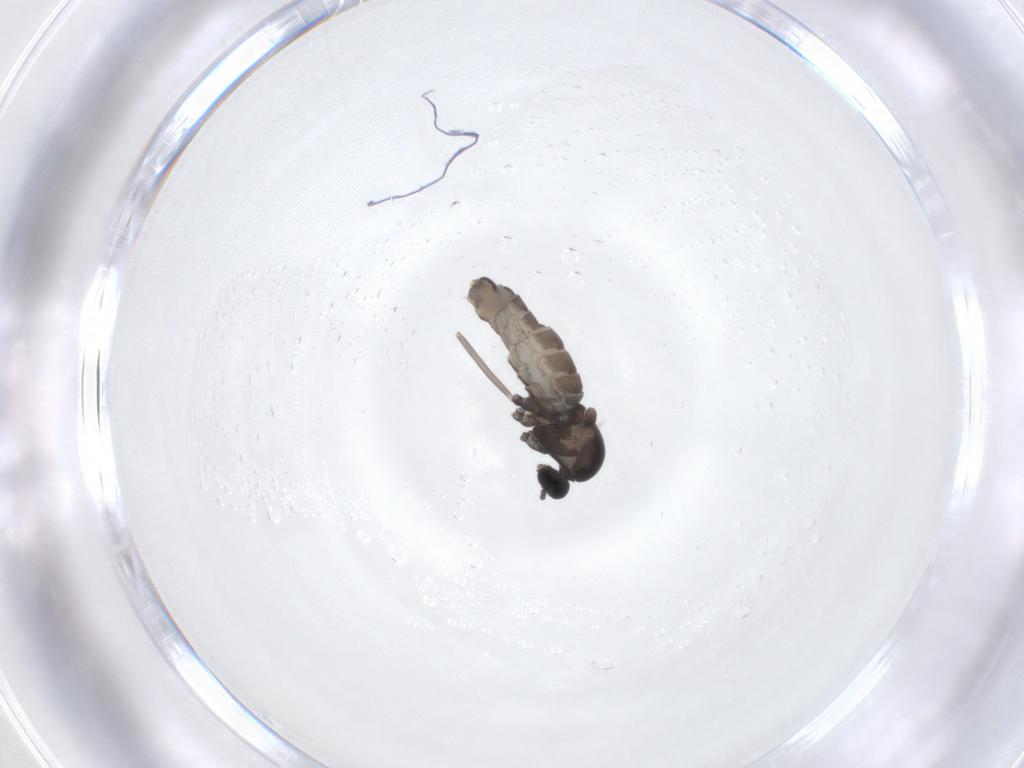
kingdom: Animalia
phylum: Arthropoda
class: Insecta
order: Diptera
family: Cecidomyiidae
